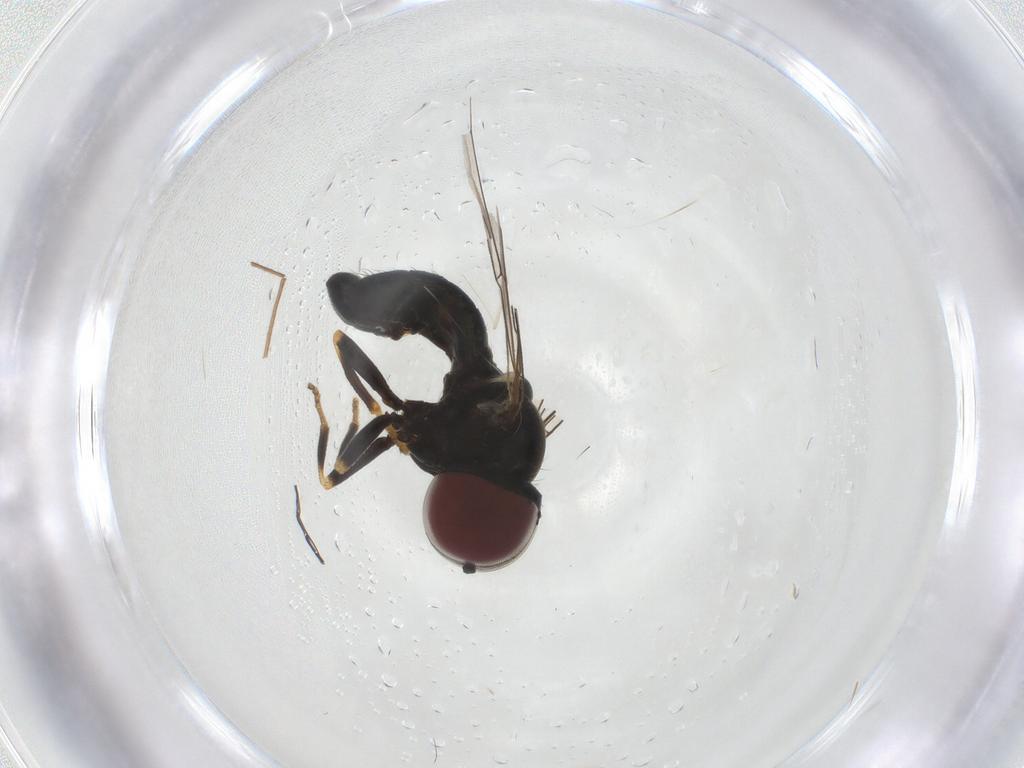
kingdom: Animalia
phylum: Arthropoda
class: Insecta
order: Diptera
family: Pipunculidae
